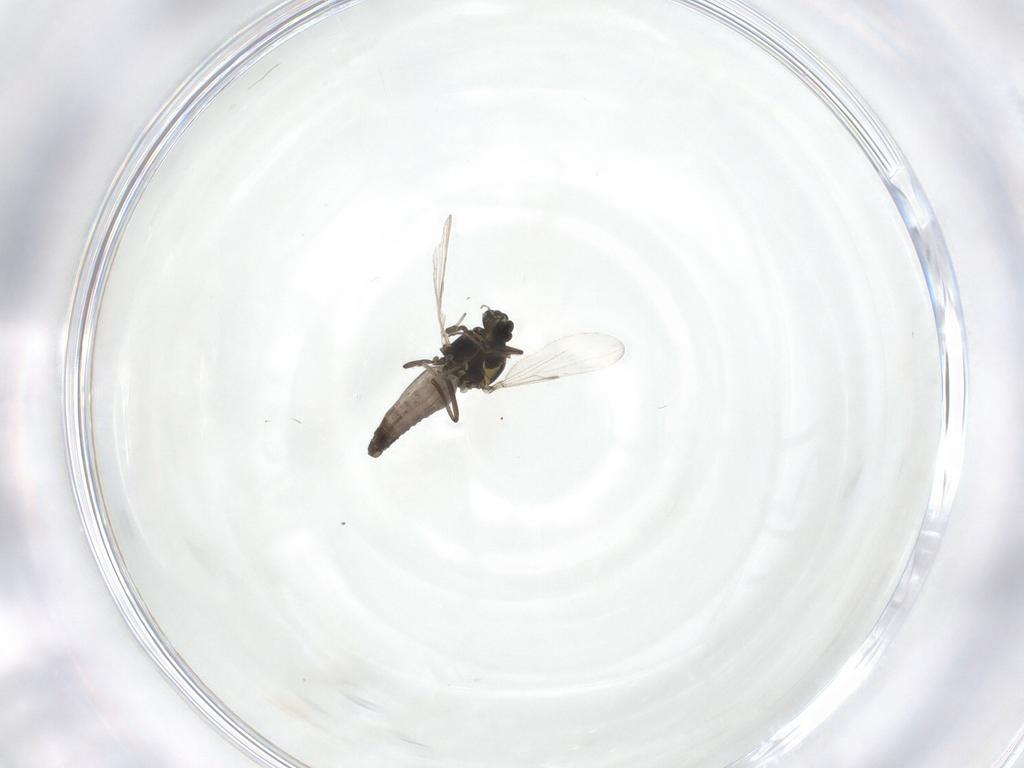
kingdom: Animalia
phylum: Arthropoda
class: Insecta
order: Diptera
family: Ceratopogonidae
